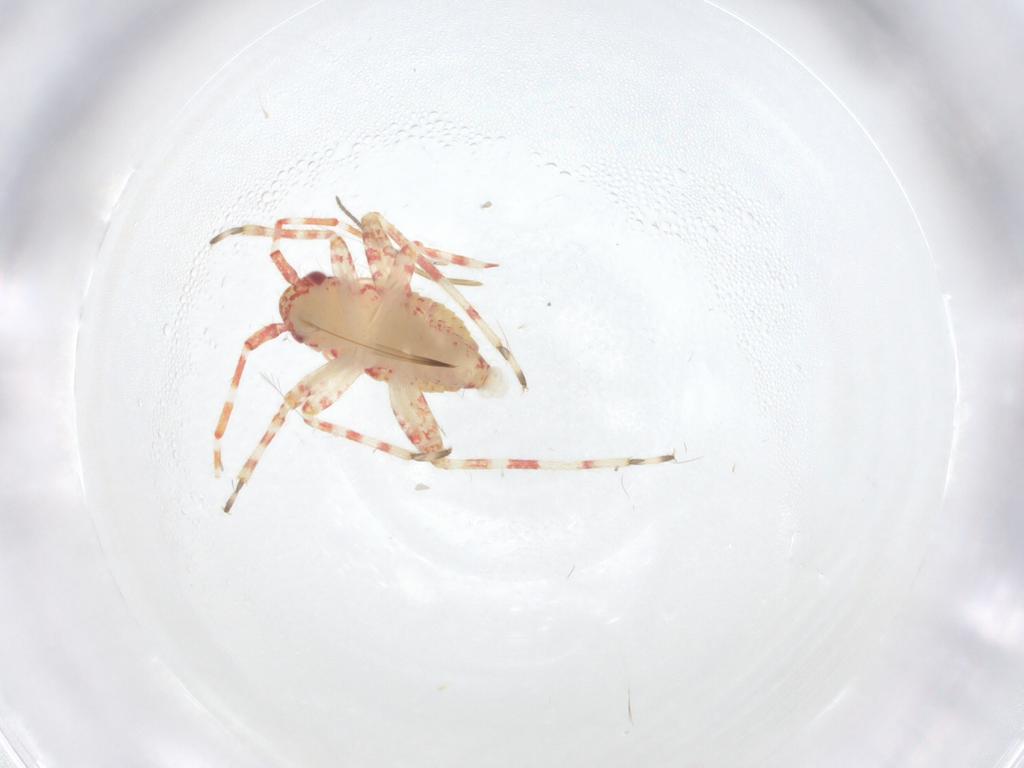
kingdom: Animalia
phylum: Arthropoda
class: Insecta
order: Hemiptera
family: Miridae
